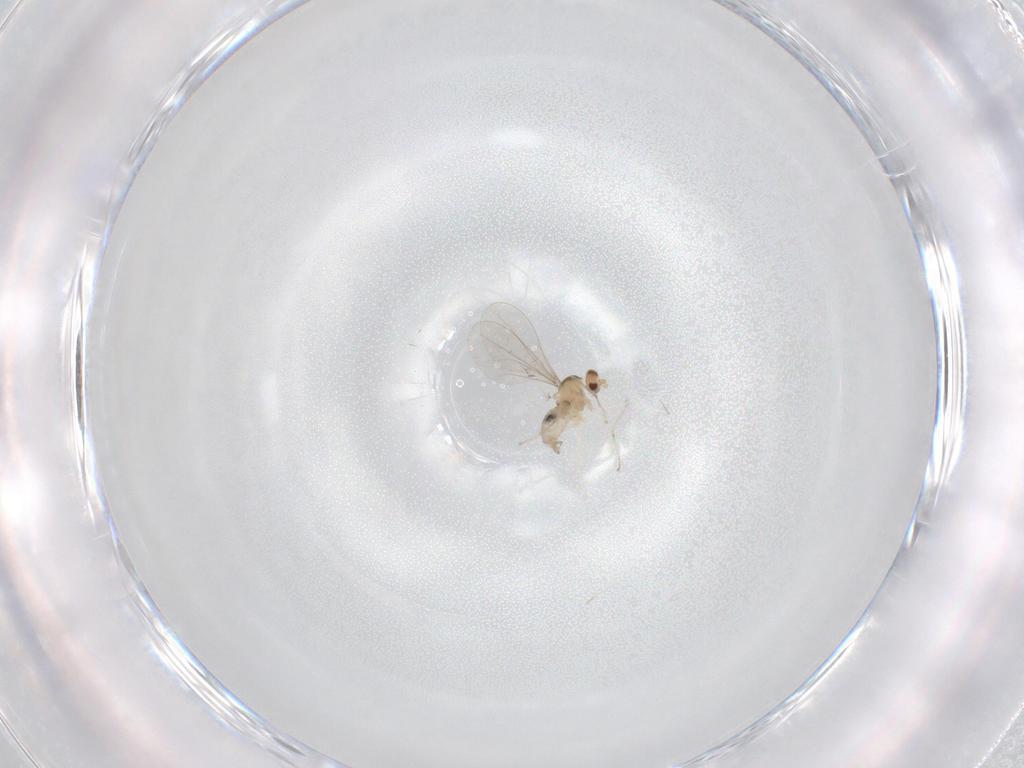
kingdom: Animalia
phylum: Arthropoda
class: Insecta
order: Diptera
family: Cecidomyiidae
